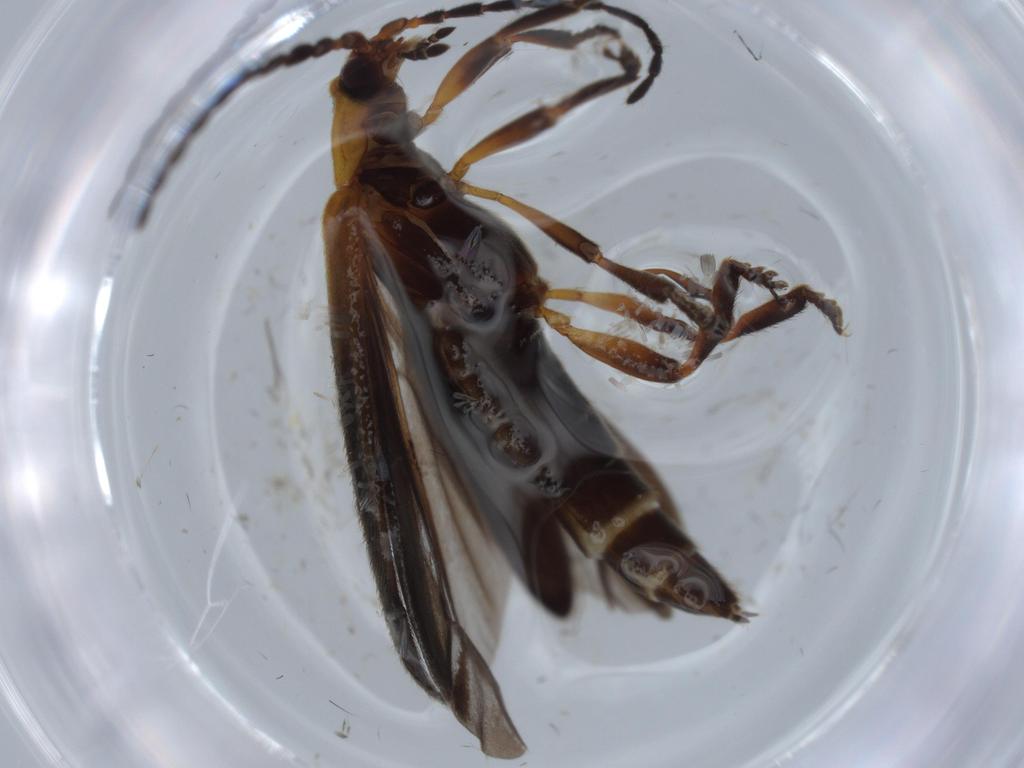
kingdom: Animalia
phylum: Arthropoda
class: Insecta
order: Coleoptera
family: Lycidae
